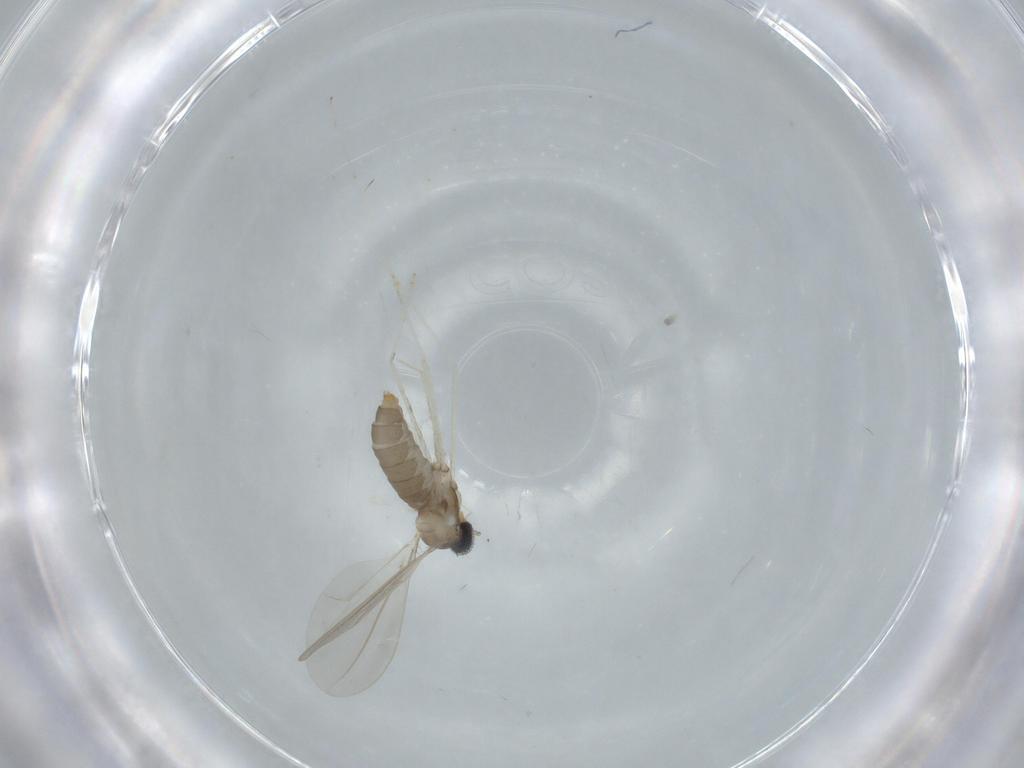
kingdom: Animalia
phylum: Arthropoda
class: Insecta
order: Diptera
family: Cecidomyiidae
